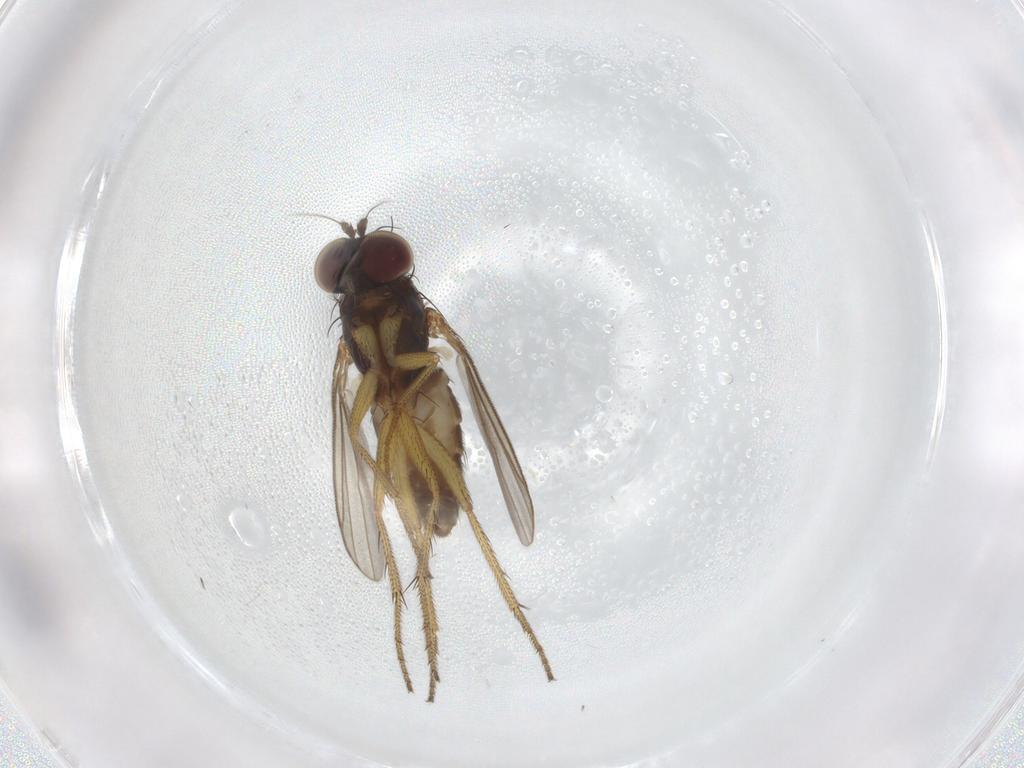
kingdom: Animalia
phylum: Arthropoda
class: Insecta
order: Diptera
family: Dolichopodidae
